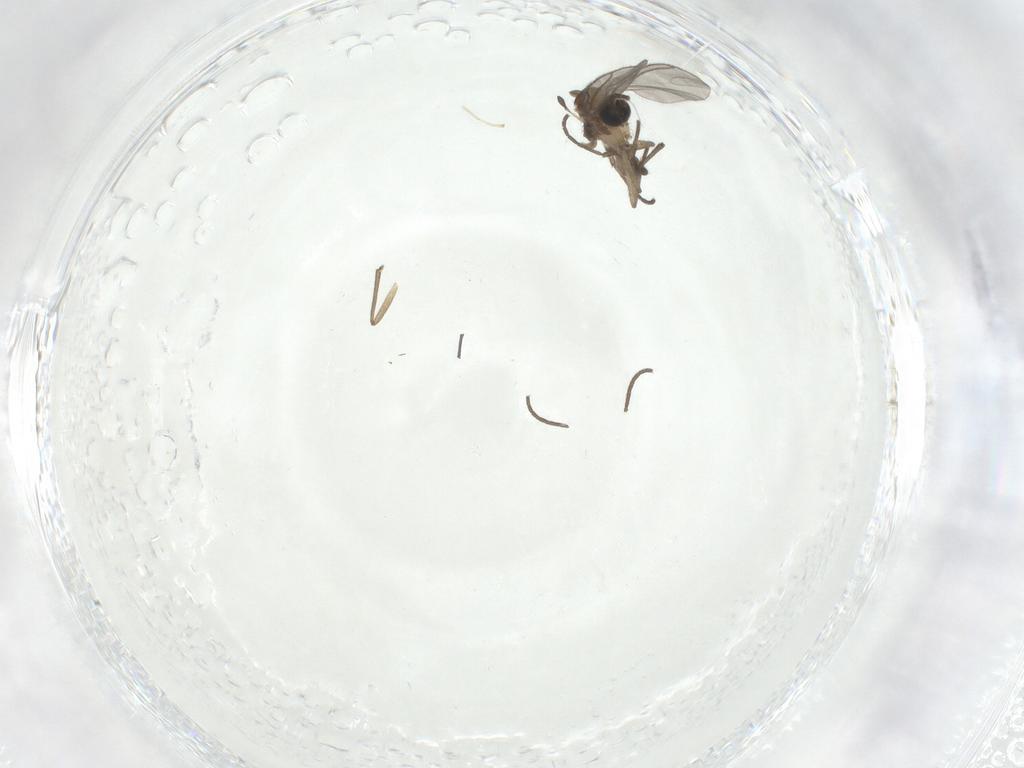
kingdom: Animalia
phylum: Arthropoda
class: Insecta
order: Diptera
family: Sciaridae
